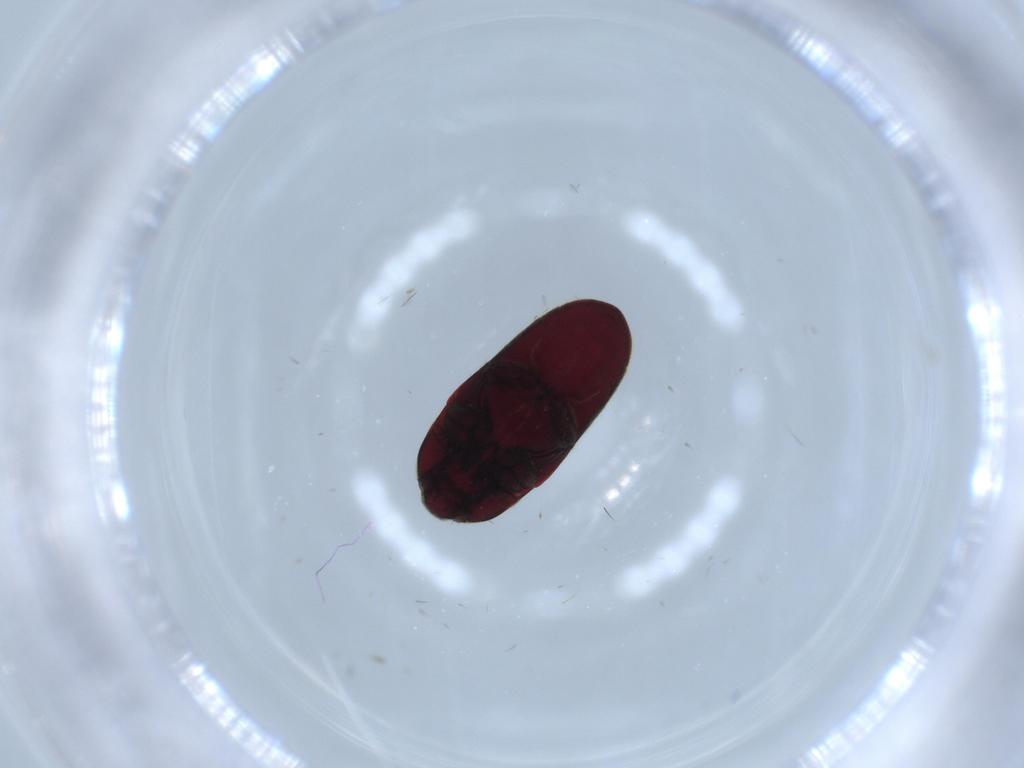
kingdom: Animalia
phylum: Arthropoda
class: Insecta
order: Coleoptera
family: Throscidae
